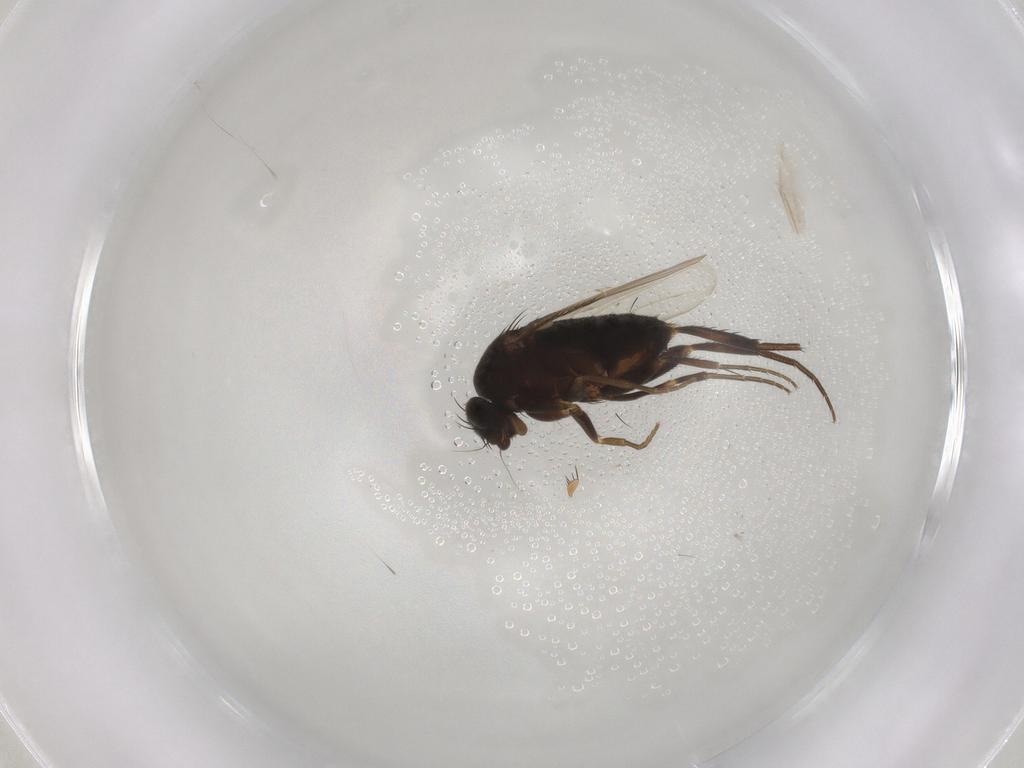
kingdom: Animalia
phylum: Arthropoda
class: Insecta
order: Diptera
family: Phoridae
